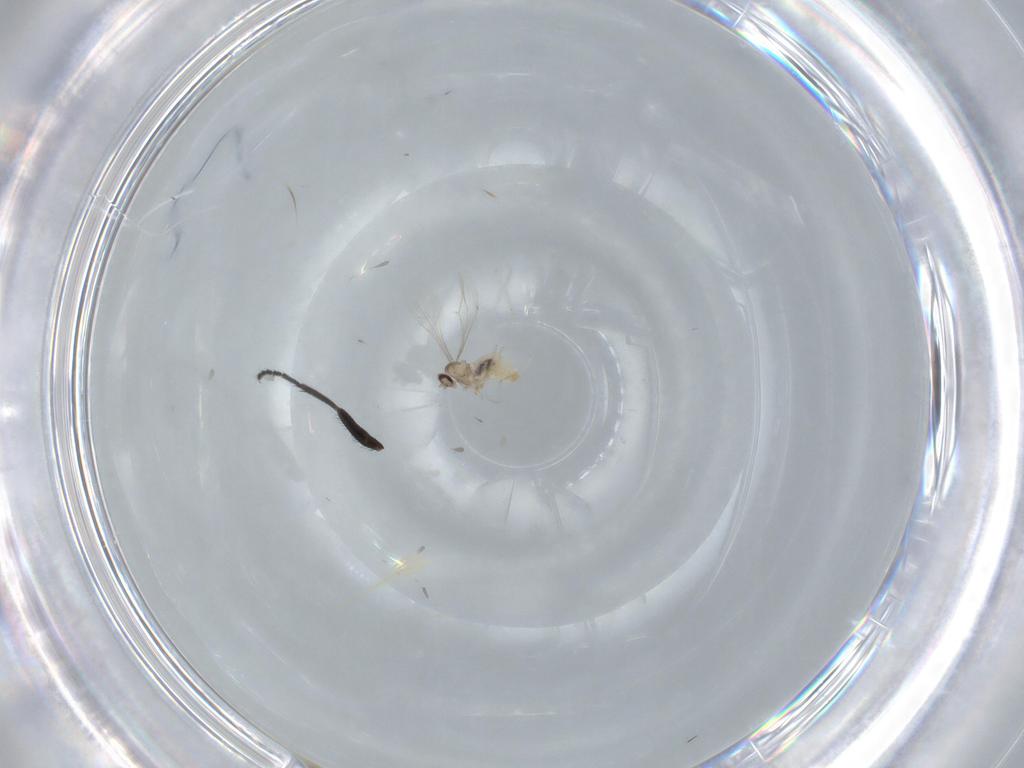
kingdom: Animalia
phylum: Arthropoda
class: Insecta
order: Diptera
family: Cecidomyiidae
